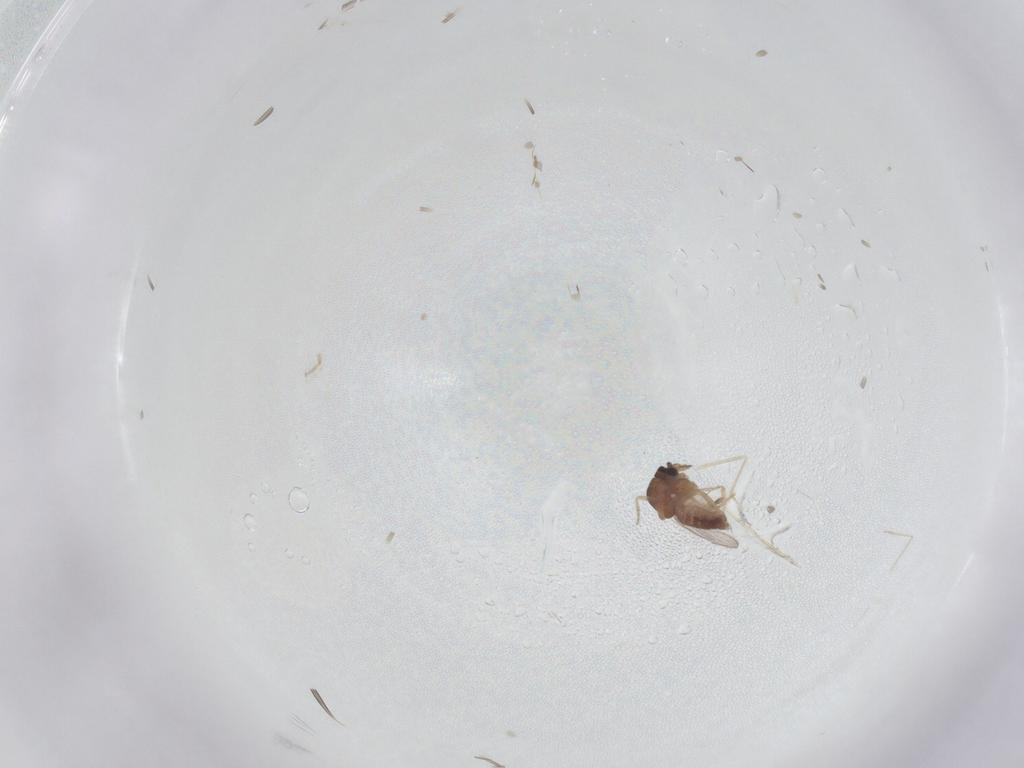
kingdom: Animalia
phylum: Arthropoda
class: Insecta
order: Diptera
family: Ceratopogonidae
